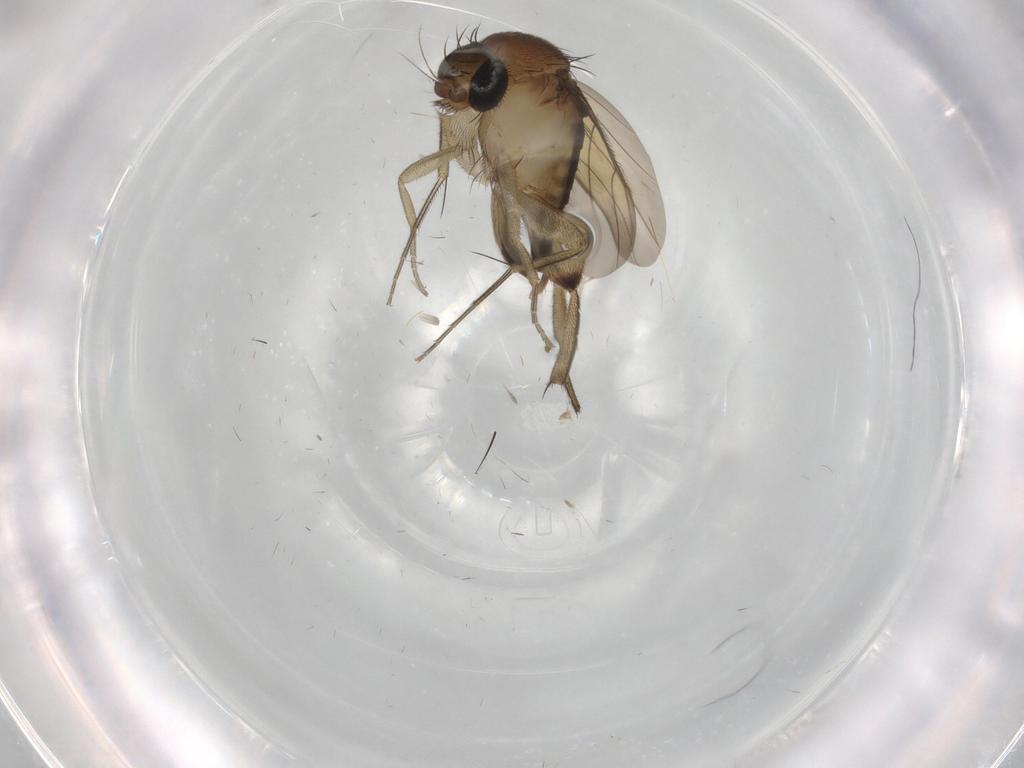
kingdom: Animalia
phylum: Arthropoda
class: Insecta
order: Diptera
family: Phoridae
